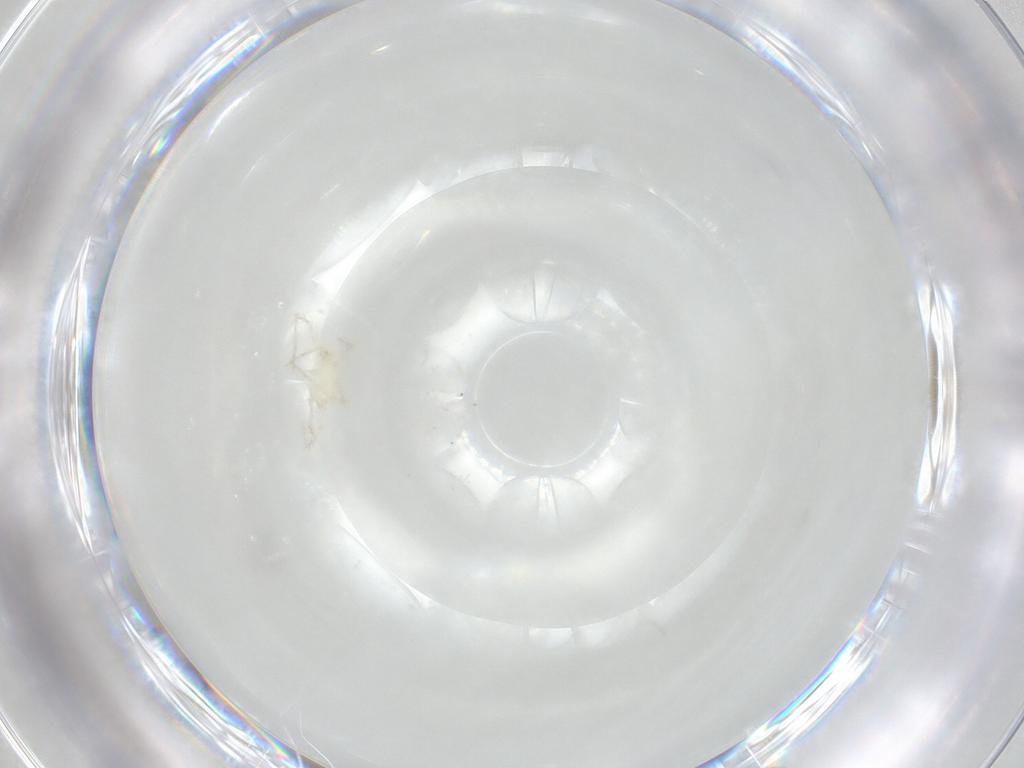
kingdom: Animalia
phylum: Arthropoda
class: Insecta
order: Diptera
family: Cecidomyiidae
